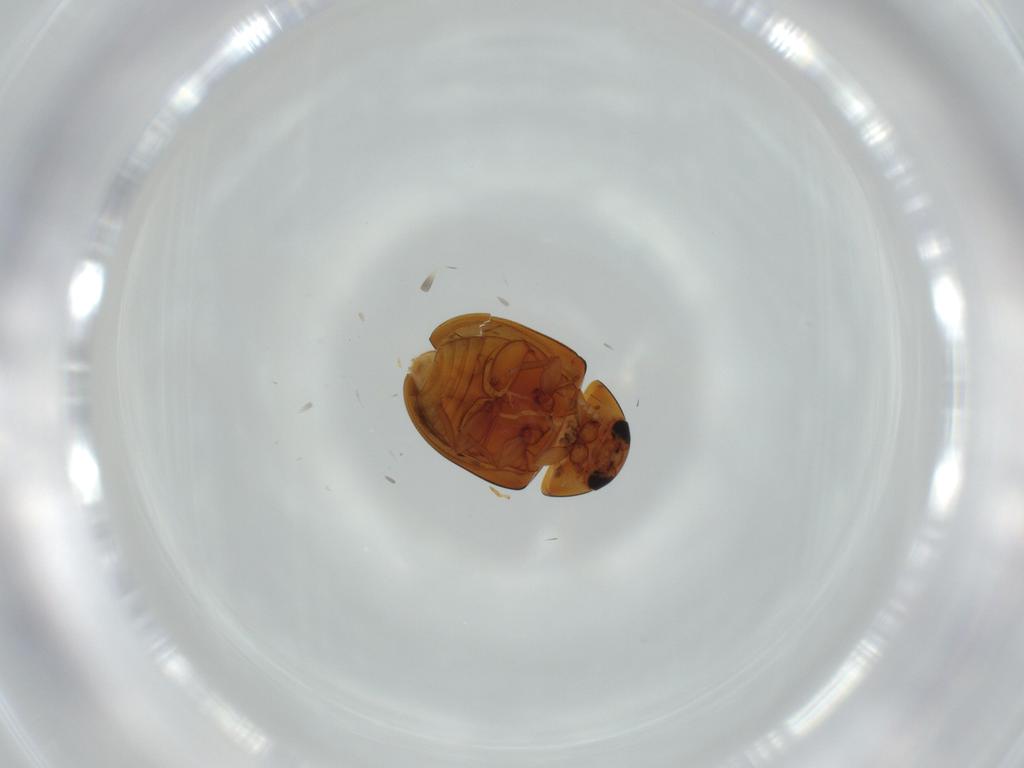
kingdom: Animalia
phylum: Arthropoda
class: Insecta
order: Coleoptera
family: Phalacridae
